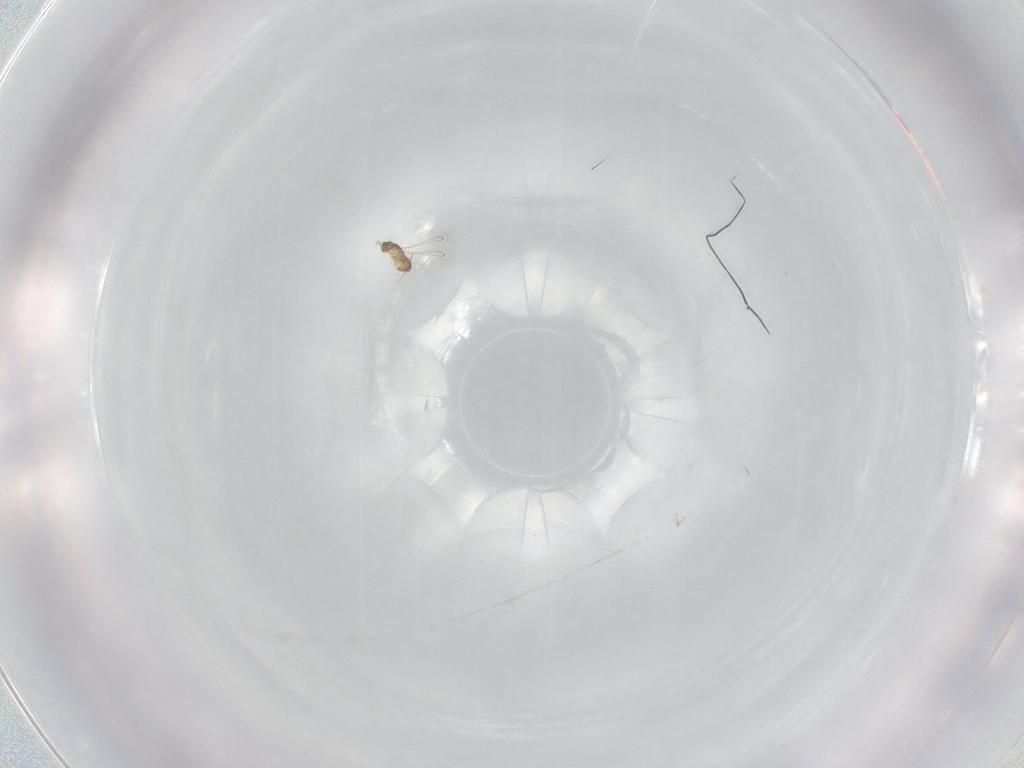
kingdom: Animalia
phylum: Arthropoda
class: Insecta
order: Hymenoptera
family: Mymaridae
